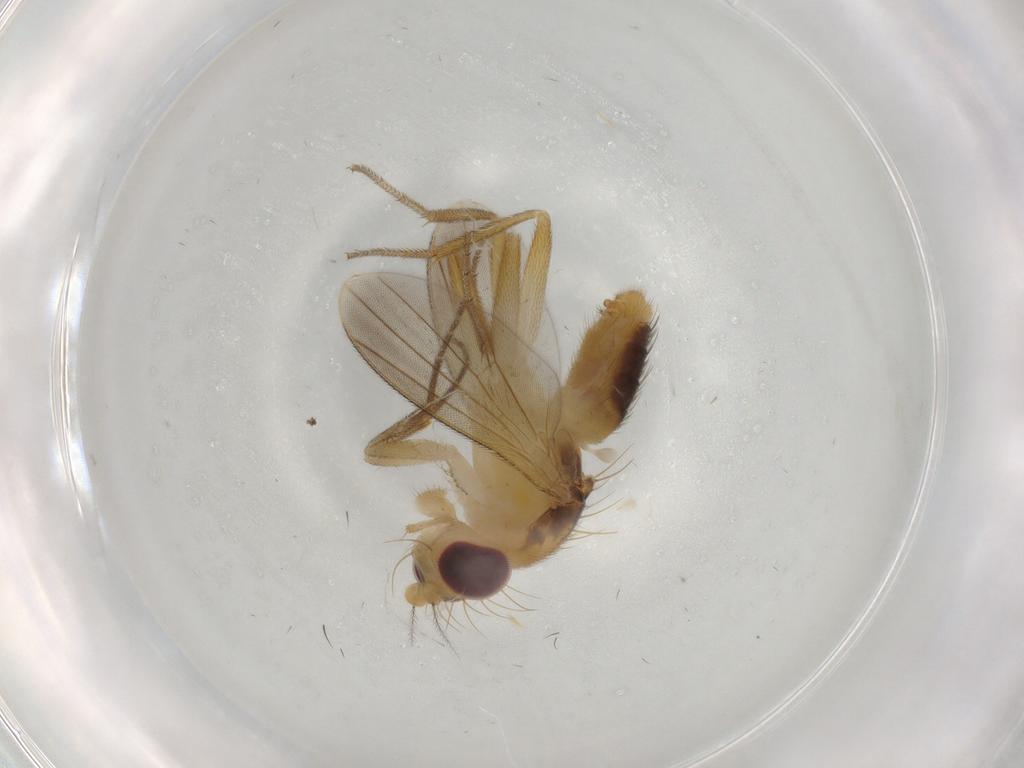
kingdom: Animalia
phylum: Arthropoda
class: Insecta
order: Diptera
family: Agromyzidae
